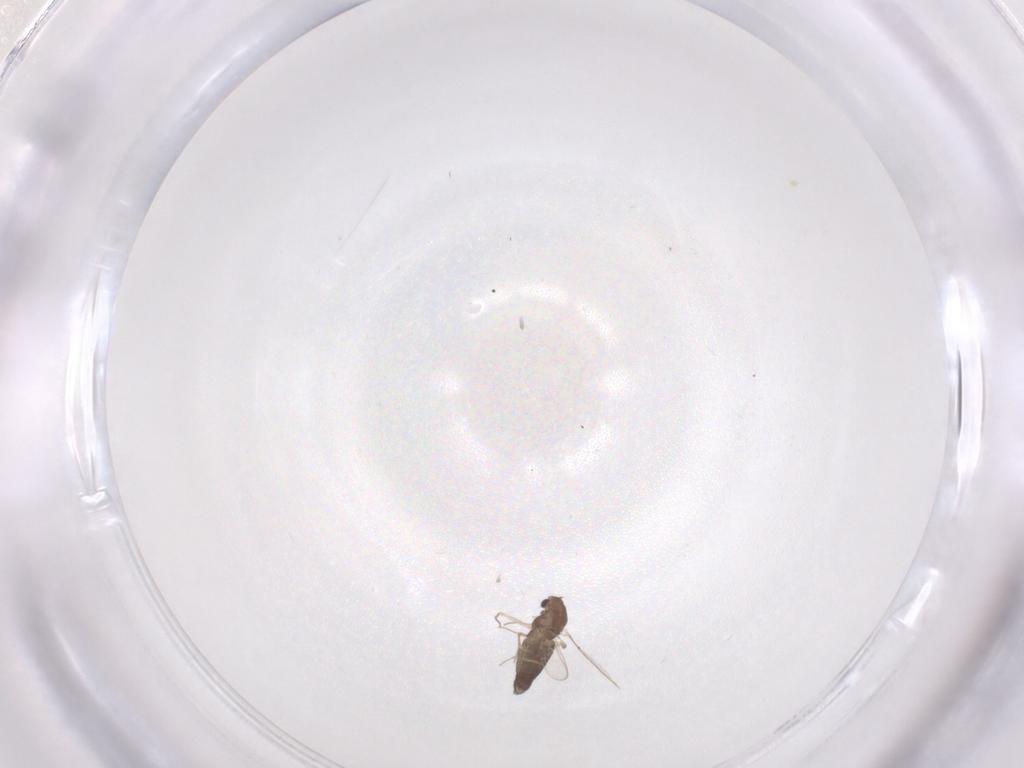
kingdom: Animalia
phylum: Arthropoda
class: Insecta
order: Diptera
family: Chironomidae
